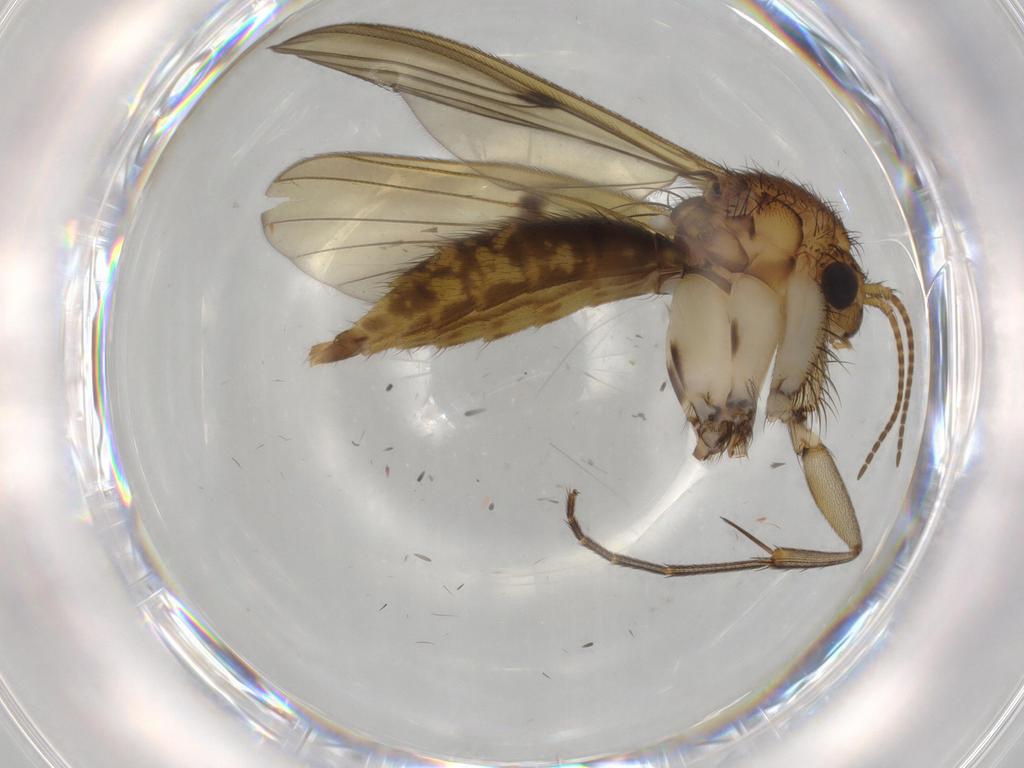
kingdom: Animalia
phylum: Arthropoda
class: Insecta
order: Diptera
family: Sciaridae
